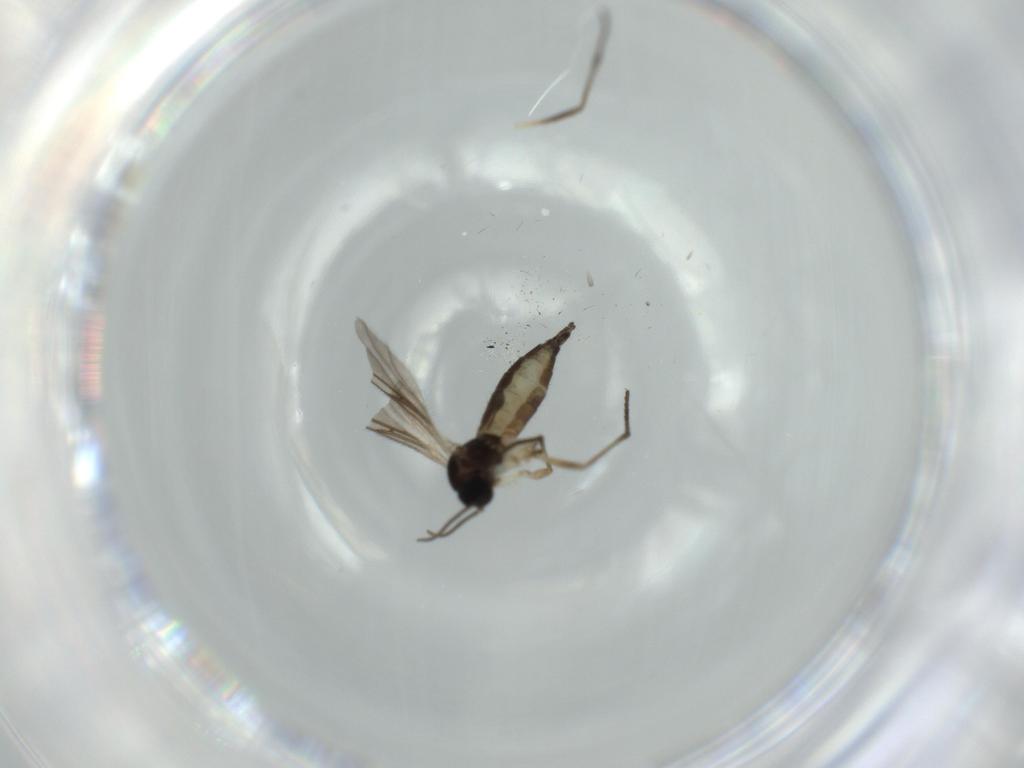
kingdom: Animalia
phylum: Arthropoda
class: Insecta
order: Diptera
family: Sciaridae
